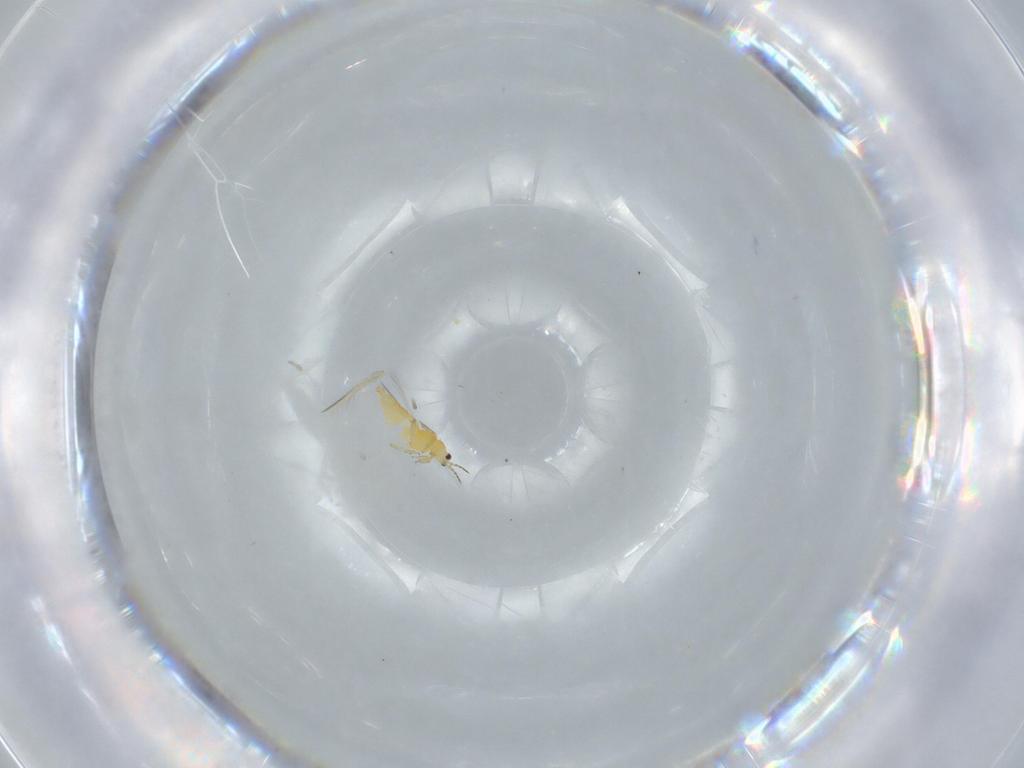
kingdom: Animalia
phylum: Arthropoda
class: Insecta
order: Thysanoptera
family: Thripidae
